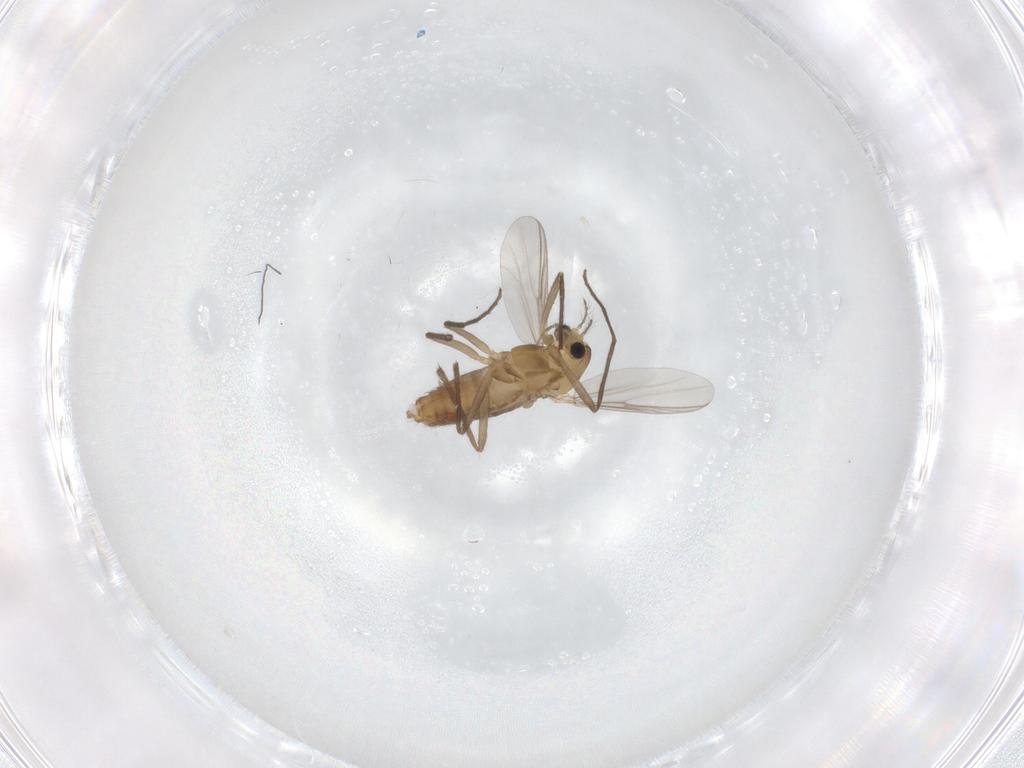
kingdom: Animalia
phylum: Arthropoda
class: Insecta
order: Diptera
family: Chironomidae
